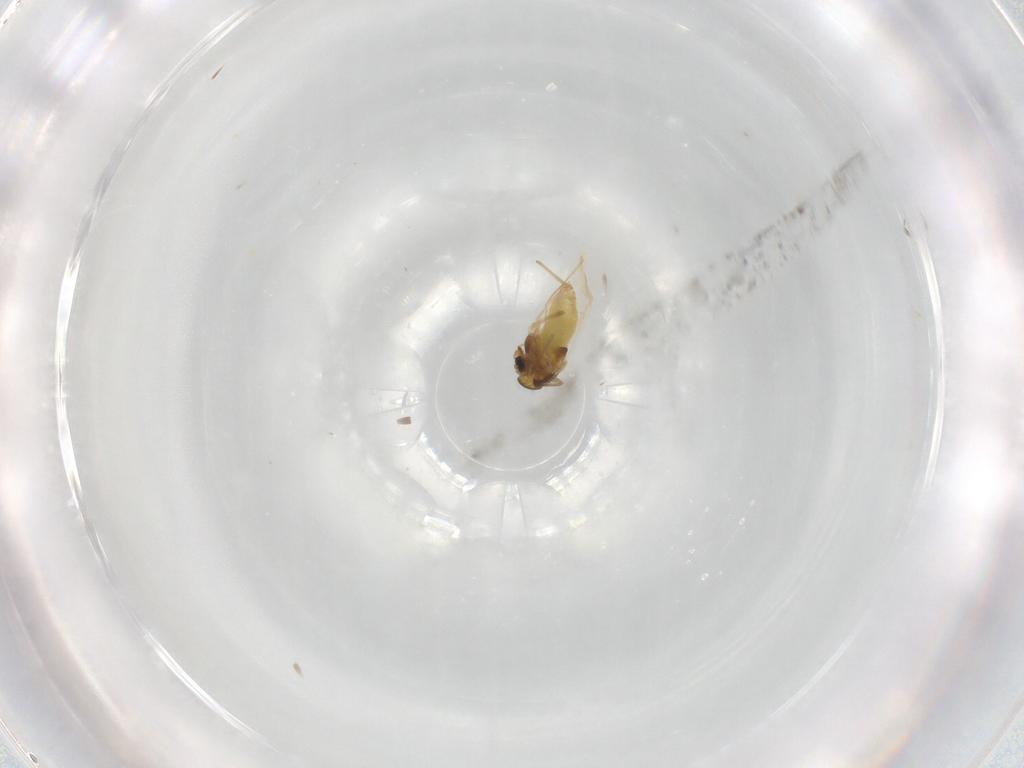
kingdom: Animalia
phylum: Arthropoda
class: Insecta
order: Diptera
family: Chironomidae
